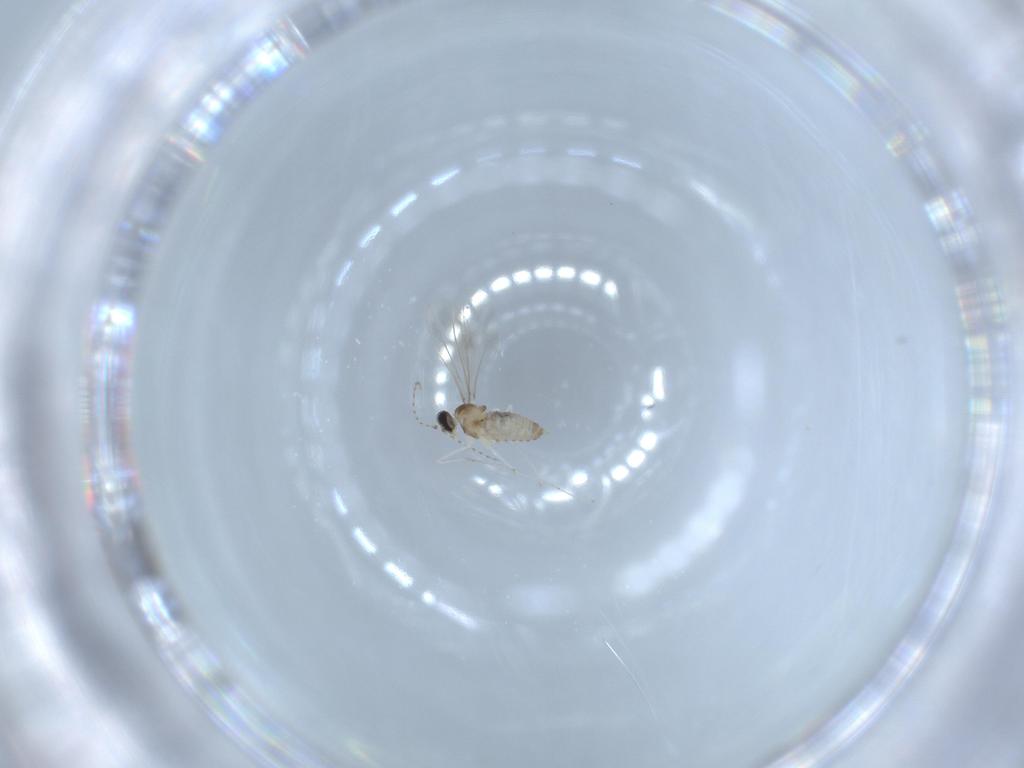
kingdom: Animalia
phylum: Arthropoda
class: Insecta
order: Diptera
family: Cecidomyiidae
